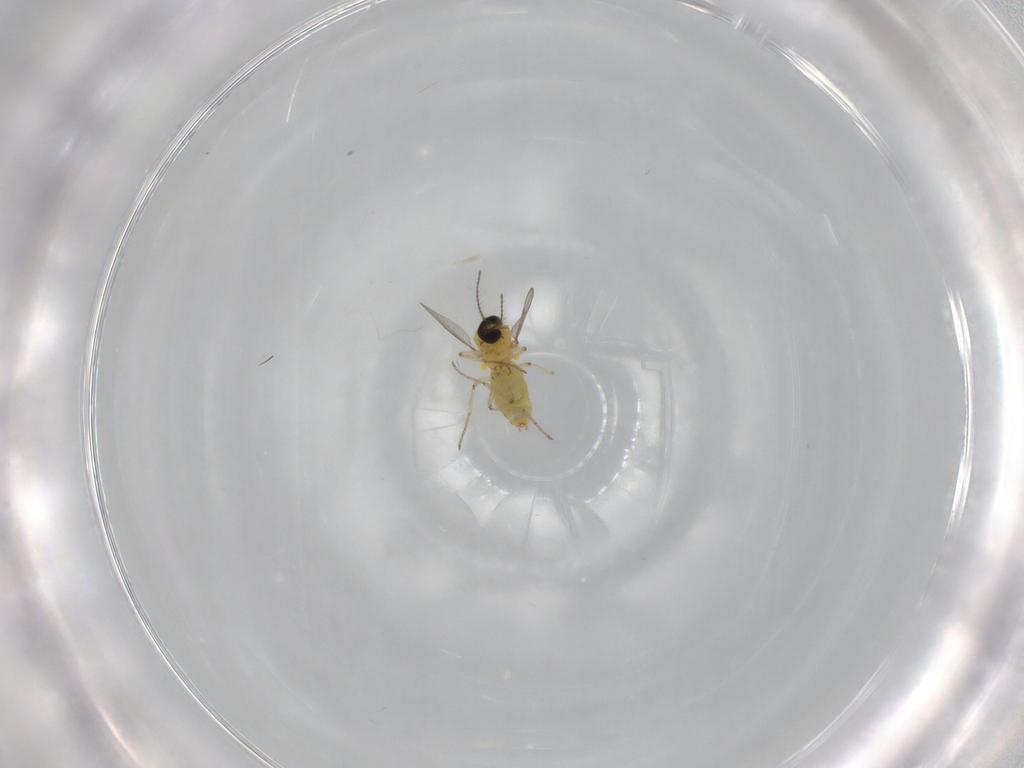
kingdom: Animalia
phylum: Arthropoda
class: Insecta
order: Diptera
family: Ceratopogonidae
